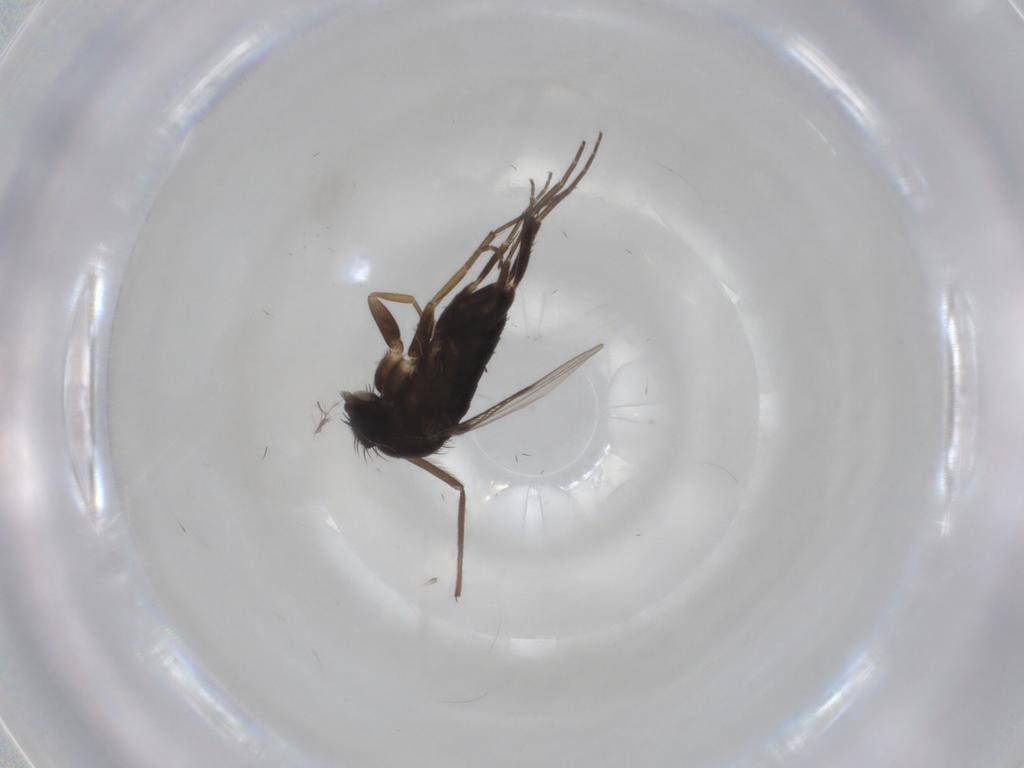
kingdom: Animalia
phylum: Arthropoda
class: Insecta
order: Diptera
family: Phoridae
